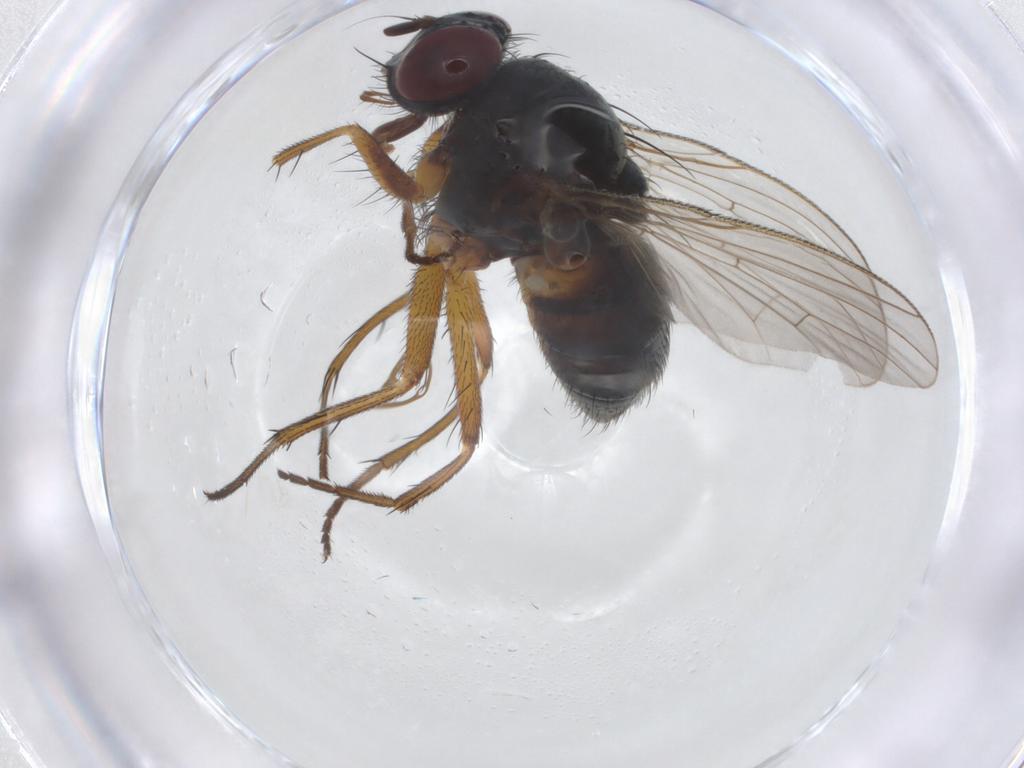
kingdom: Animalia
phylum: Arthropoda
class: Insecta
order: Diptera
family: Muscidae
